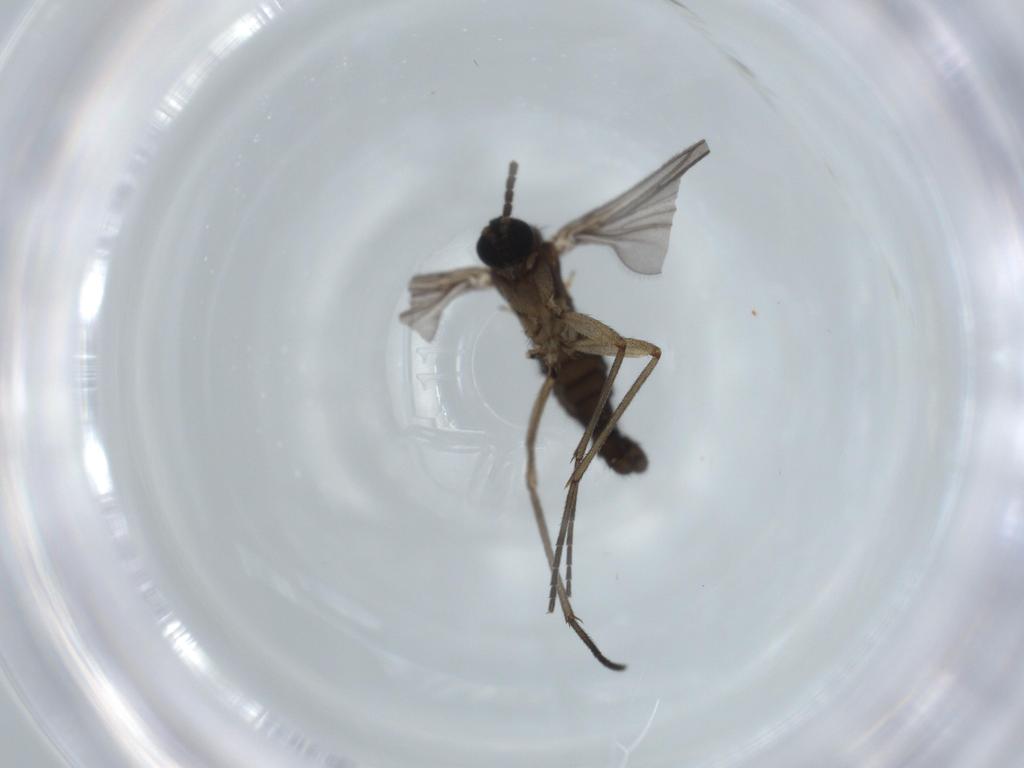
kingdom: Animalia
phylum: Arthropoda
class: Insecta
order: Diptera
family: Sciaridae
